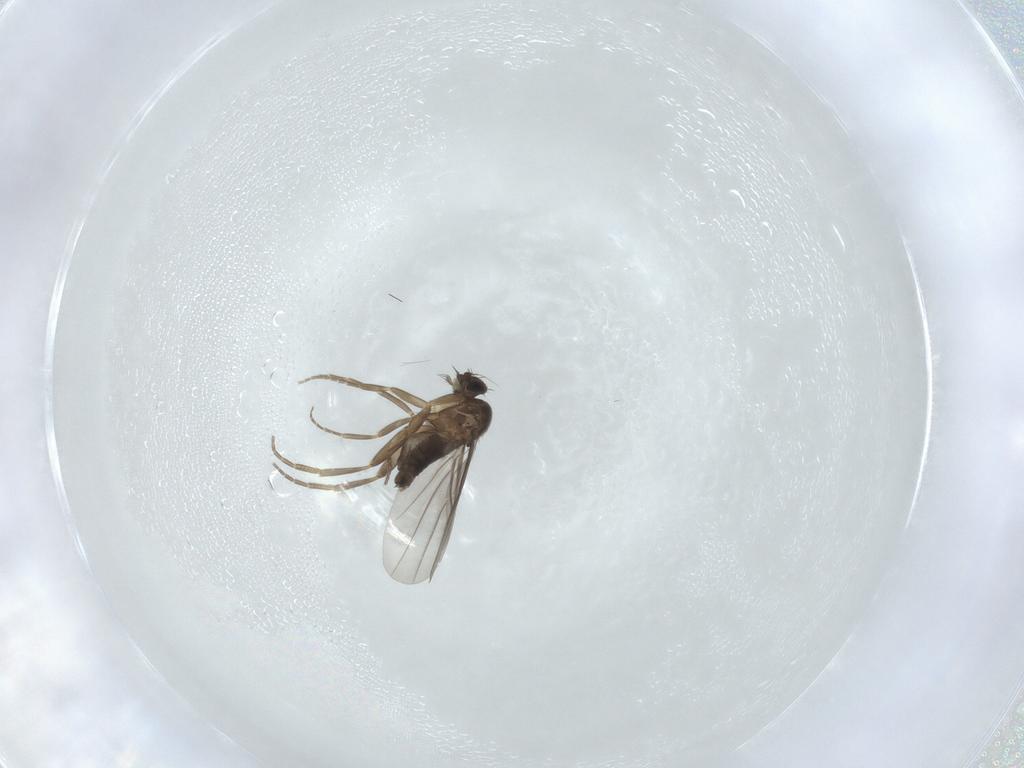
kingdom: Animalia
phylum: Arthropoda
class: Insecta
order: Diptera
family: Phoridae
